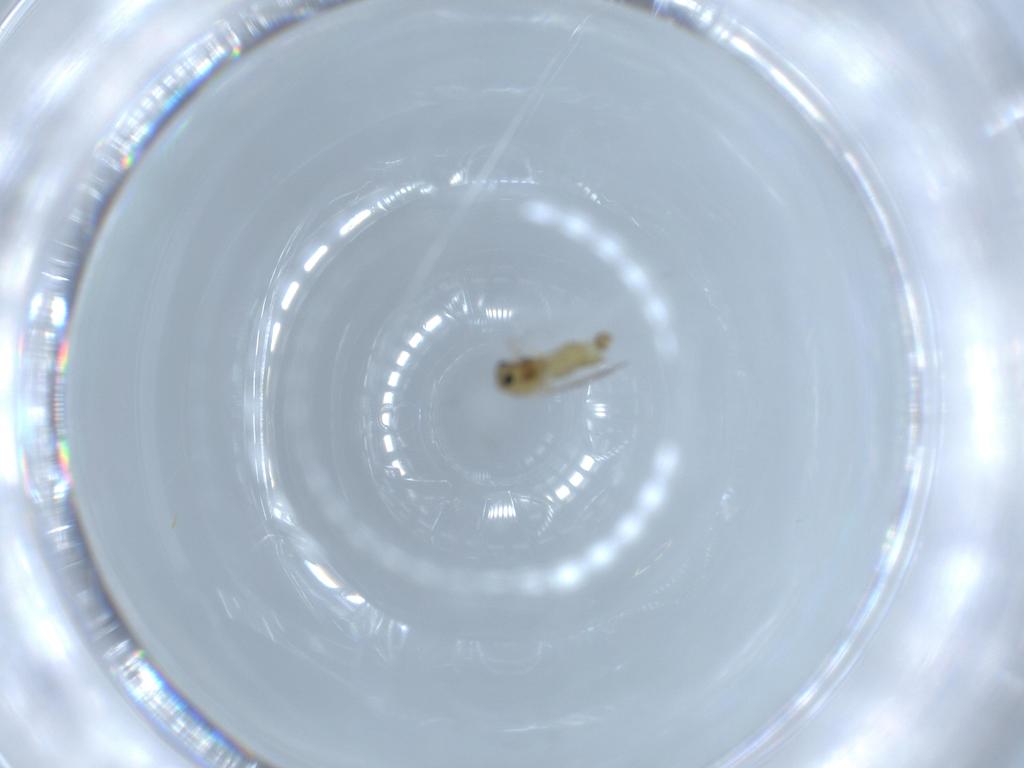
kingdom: Animalia
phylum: Arthropoda
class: Insecta
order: Diptera
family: Chironomidae
